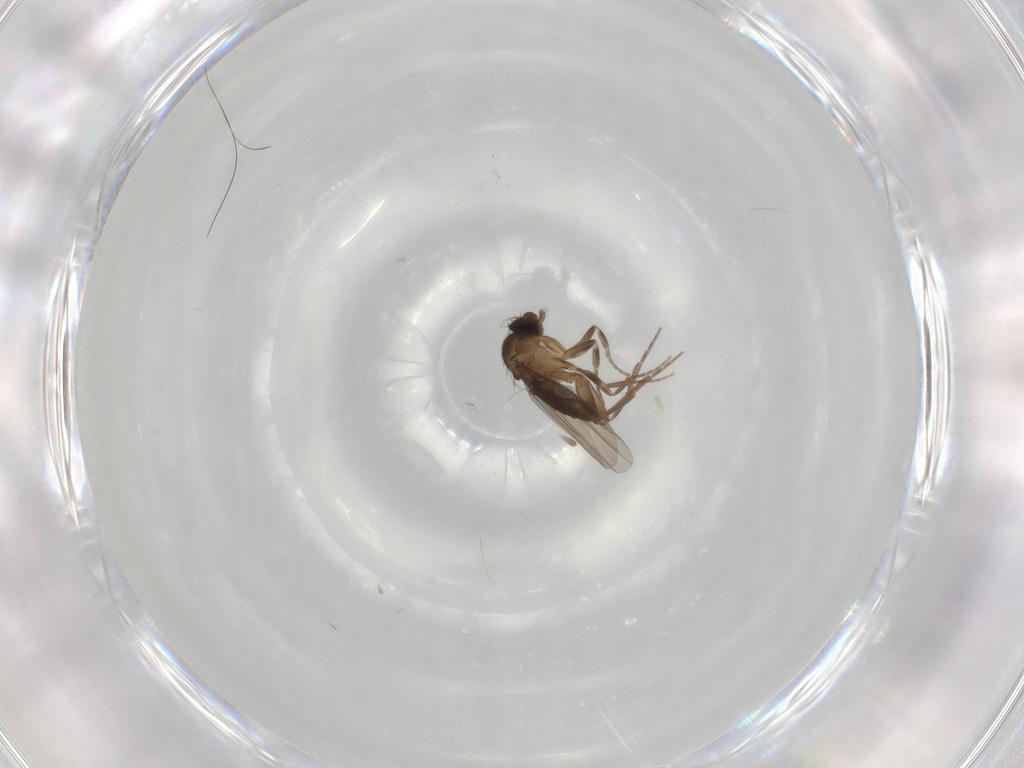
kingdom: Animalia
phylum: Arthropoda
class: Insecta
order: Diptera
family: Phoridae
